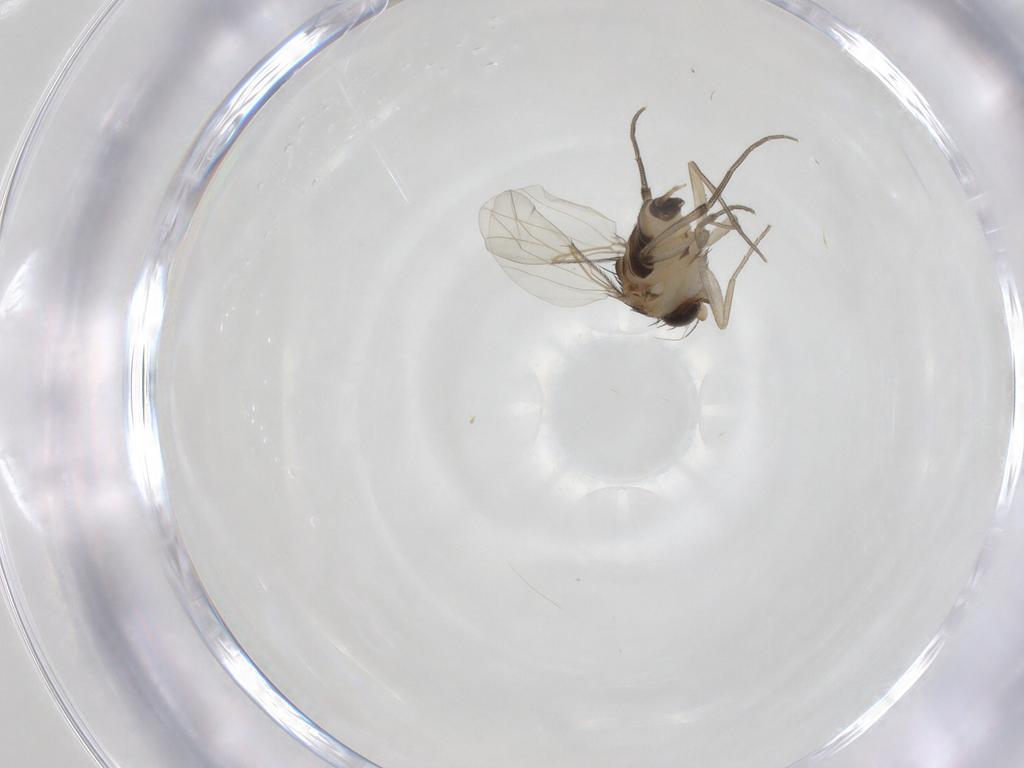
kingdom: Animalia
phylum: Arthropoda
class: Insecta
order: Diptera
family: Phoridae
